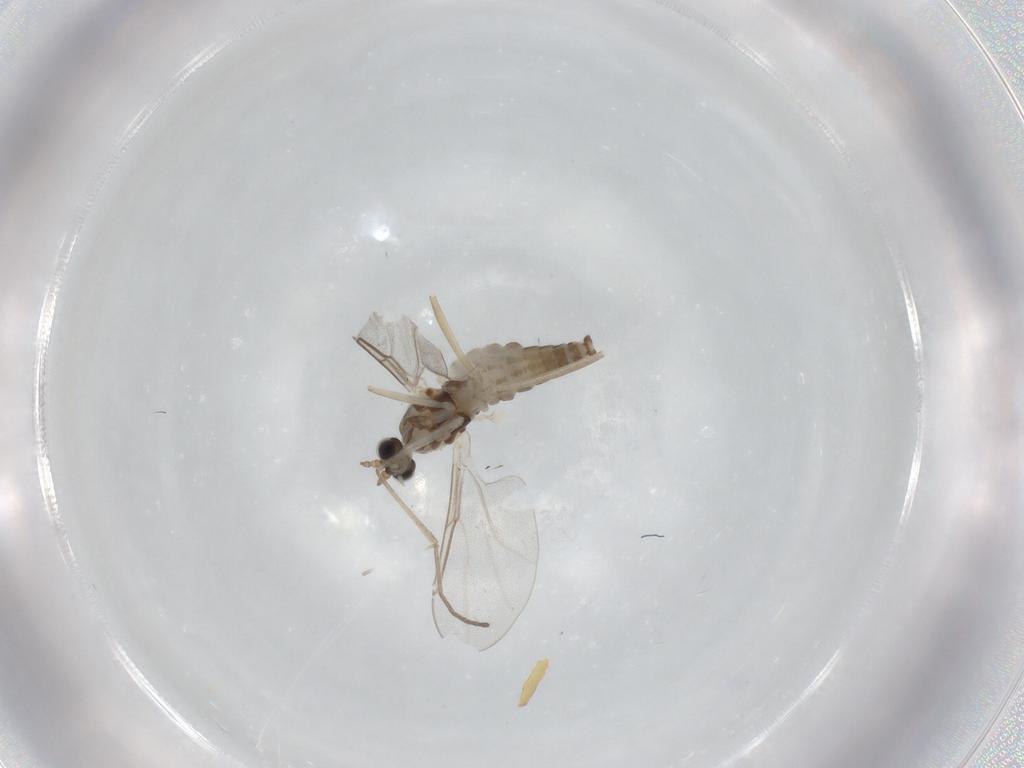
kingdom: Animalia
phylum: Arthropoda
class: Insecta
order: Diptera
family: Cecidomyiidae
